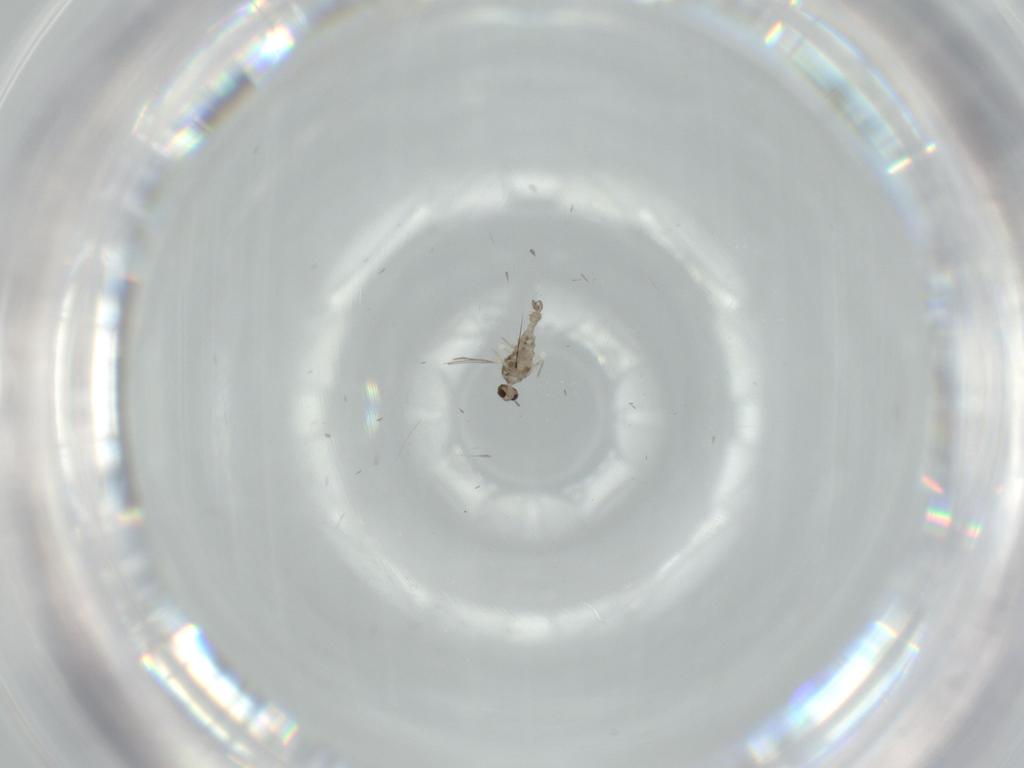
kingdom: Animalia
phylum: Arthropoda
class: Insecta
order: Diptera
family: Cecidomyiidae
